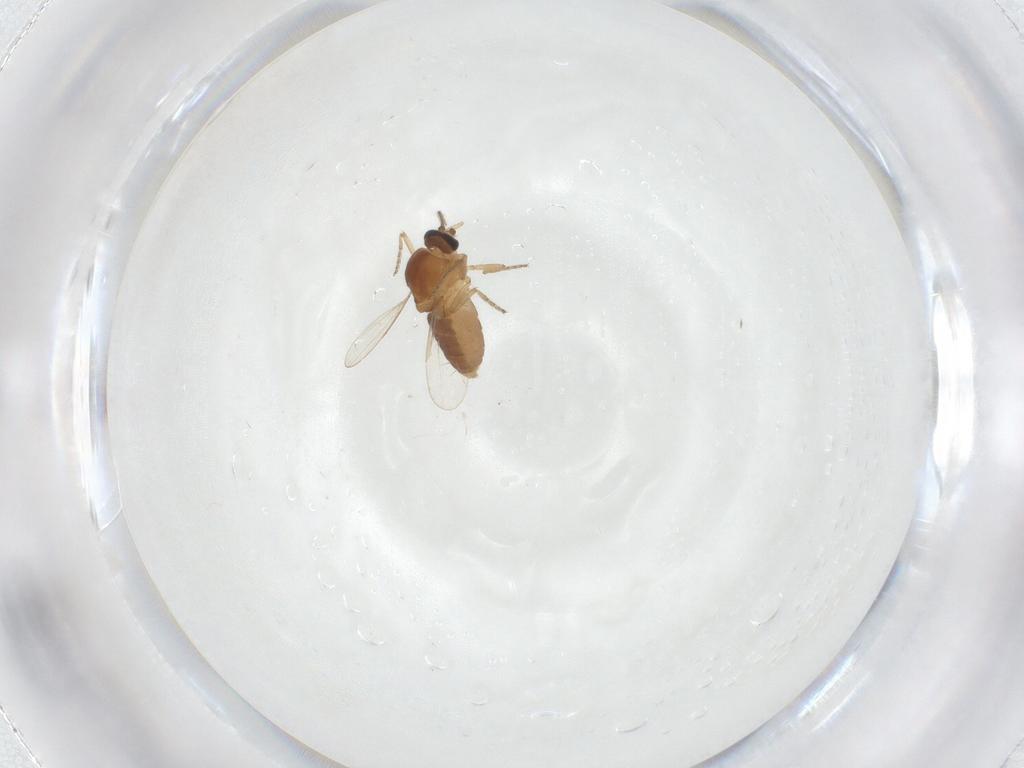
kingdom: Animalia
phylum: Arthropoda
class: Insecta
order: Diptera
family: Ceratopogonidae
